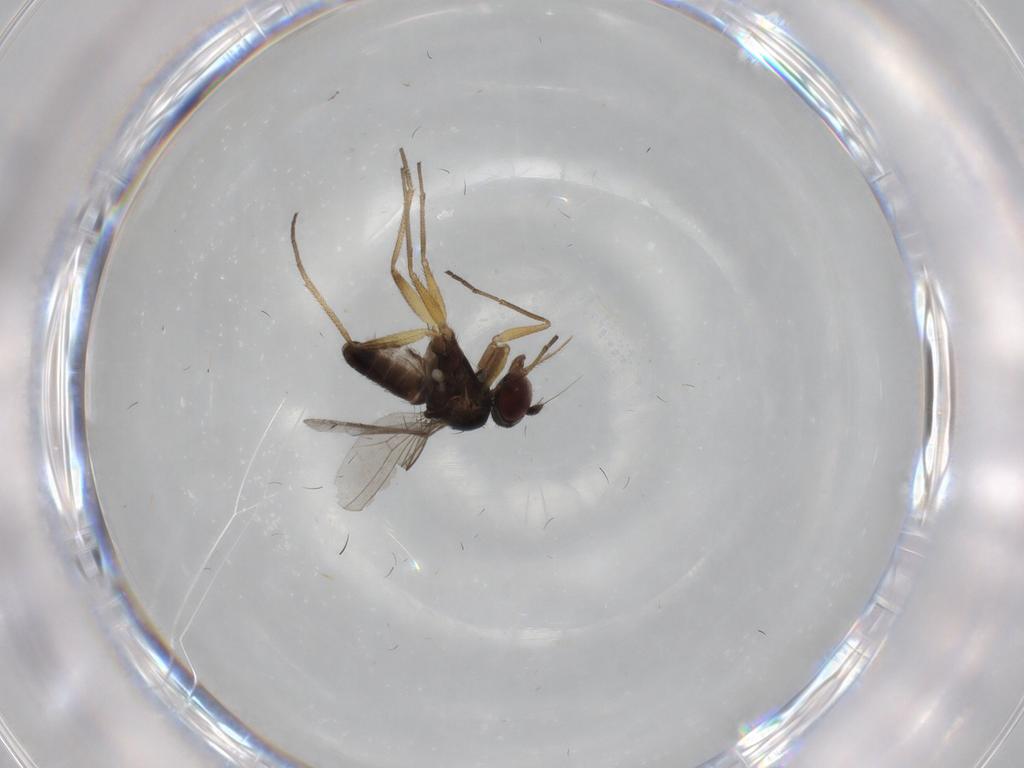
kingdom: Animalia
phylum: Arthropoda
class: Insecta
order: Diptera
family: Dolichopodidae
